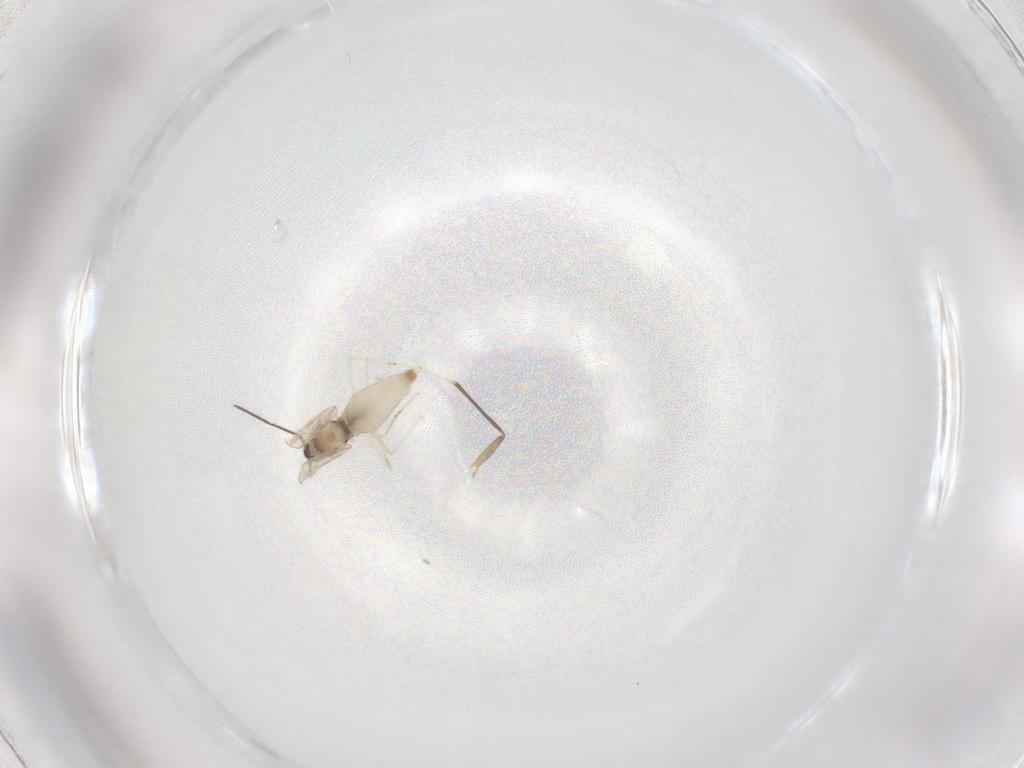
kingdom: Animalia
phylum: Arthropoda
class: Insecta
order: Diptera
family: Cecidomyiidae
